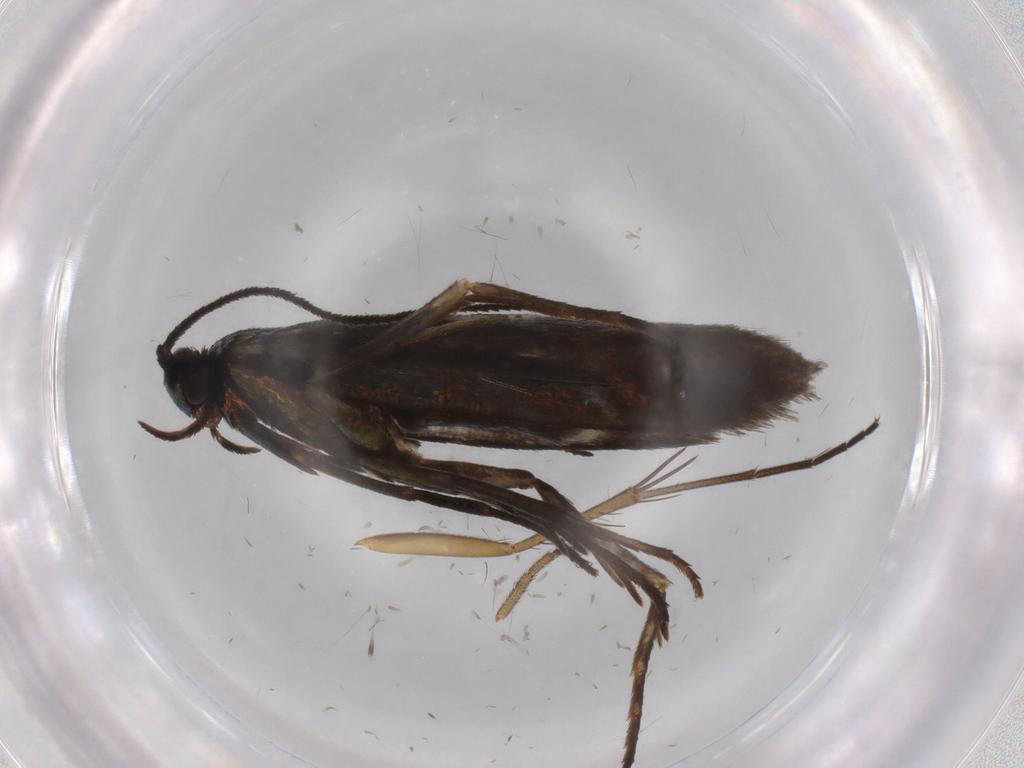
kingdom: Animalia
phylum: Arthropoda
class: Insecta
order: Lepidoptera
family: Argyresthiidae
